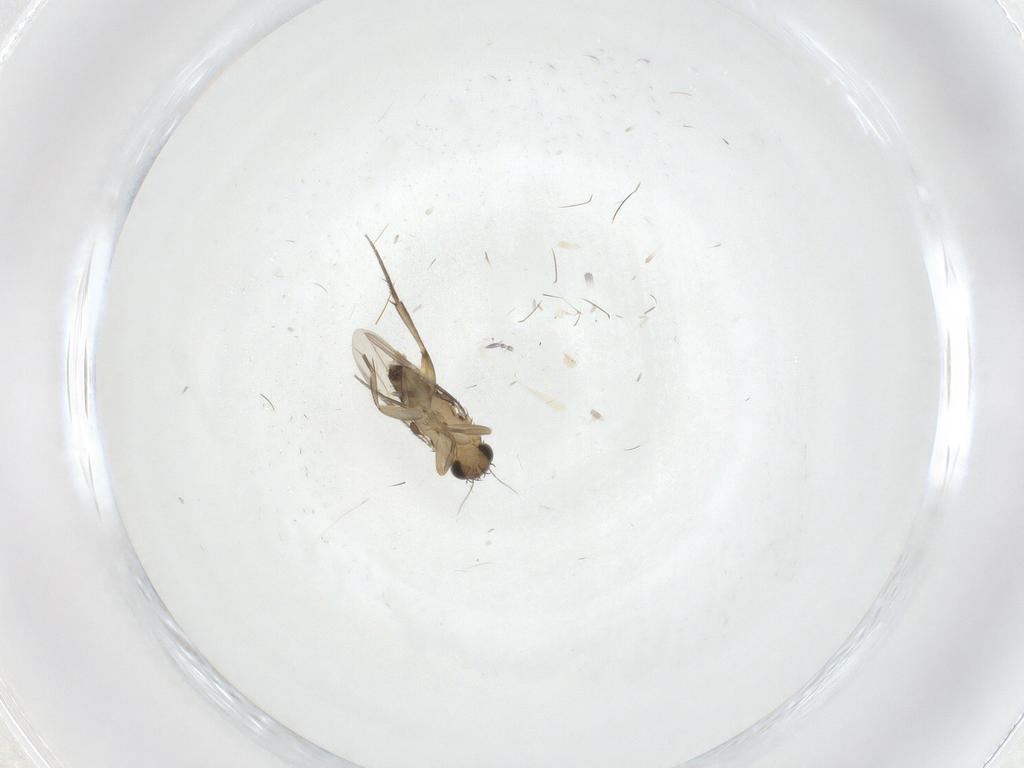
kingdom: Animalia
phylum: Arthropoda
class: Insecta
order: Diptera
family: Phoridae
